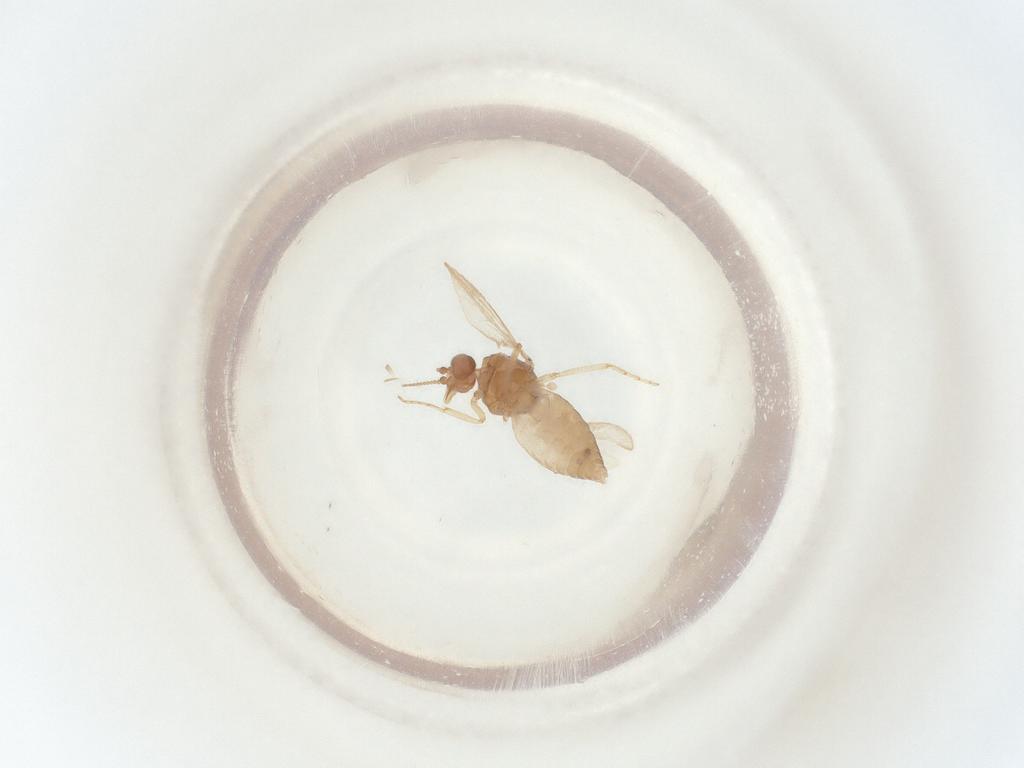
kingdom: Animalia
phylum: Arthropoda
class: Insecta
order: Diptera
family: Ceratopogonidae
